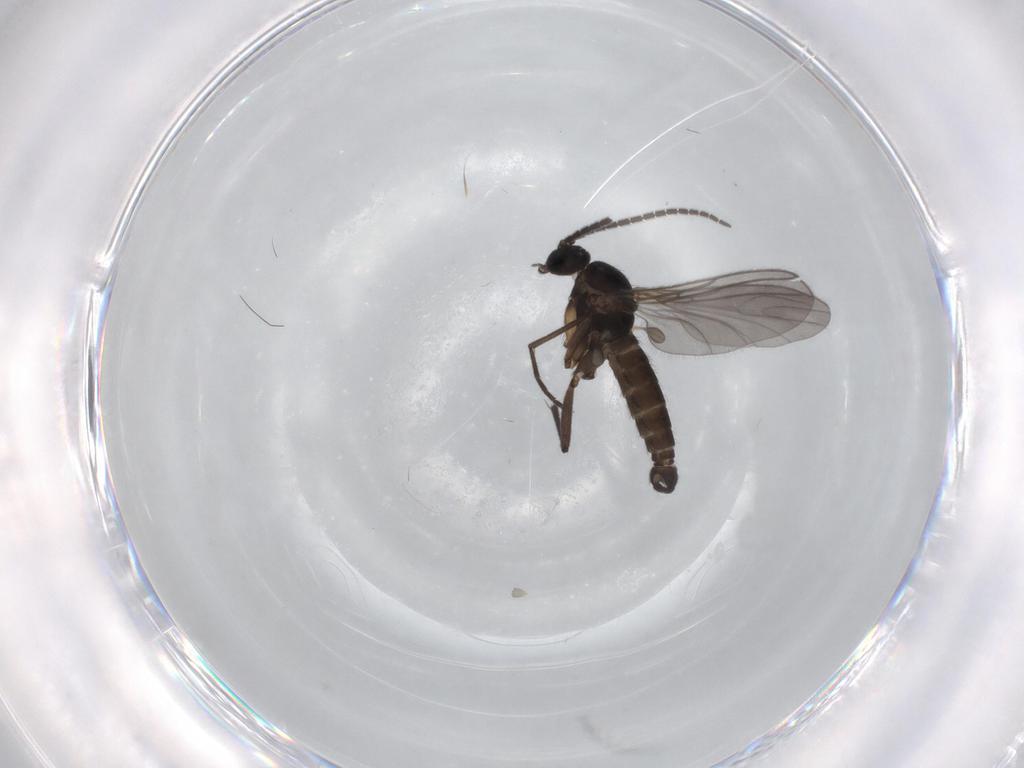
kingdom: Animalia
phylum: Arthropoda
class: Insecta
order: Diptera
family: Sciaridae
